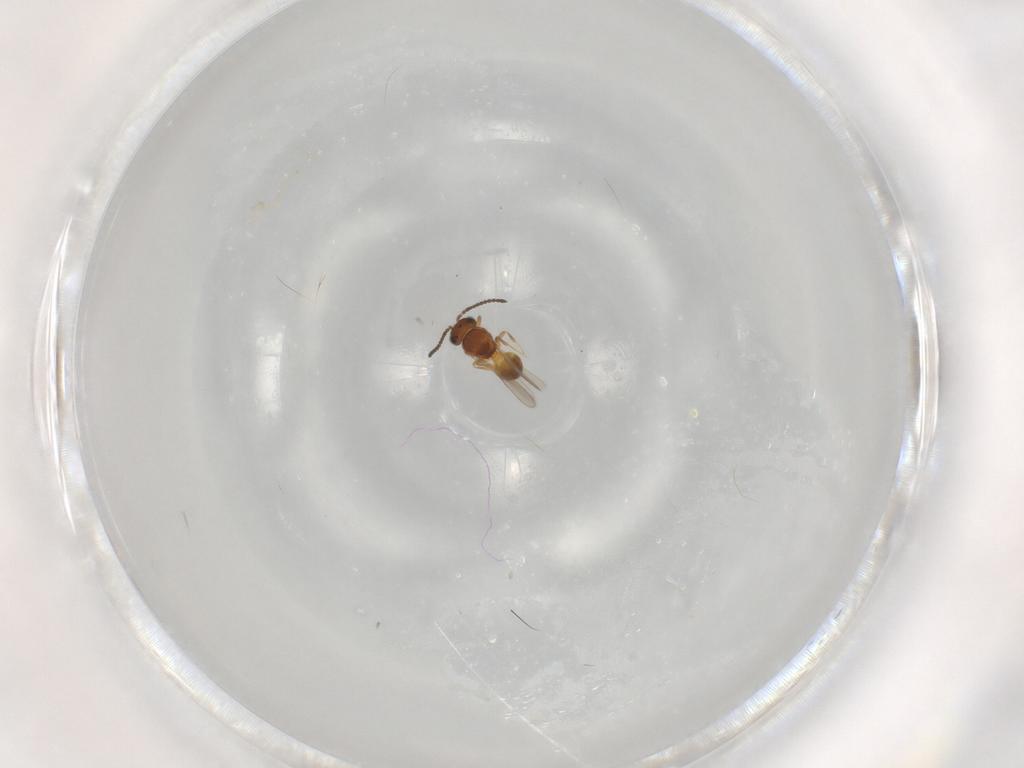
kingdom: Animalia
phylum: Arthropoda
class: Insecta
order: Hymenoptera
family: Scelionidae
